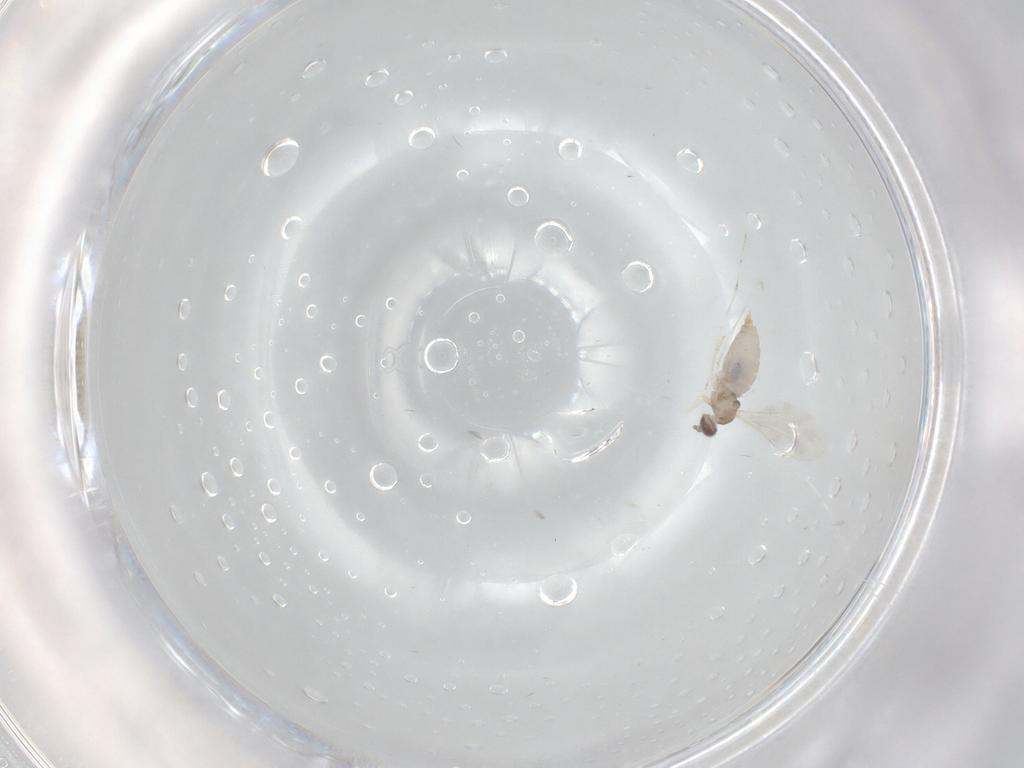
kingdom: Animalia
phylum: Arthropoda
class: Insecta
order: Diptera
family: Cecidomyiidae
